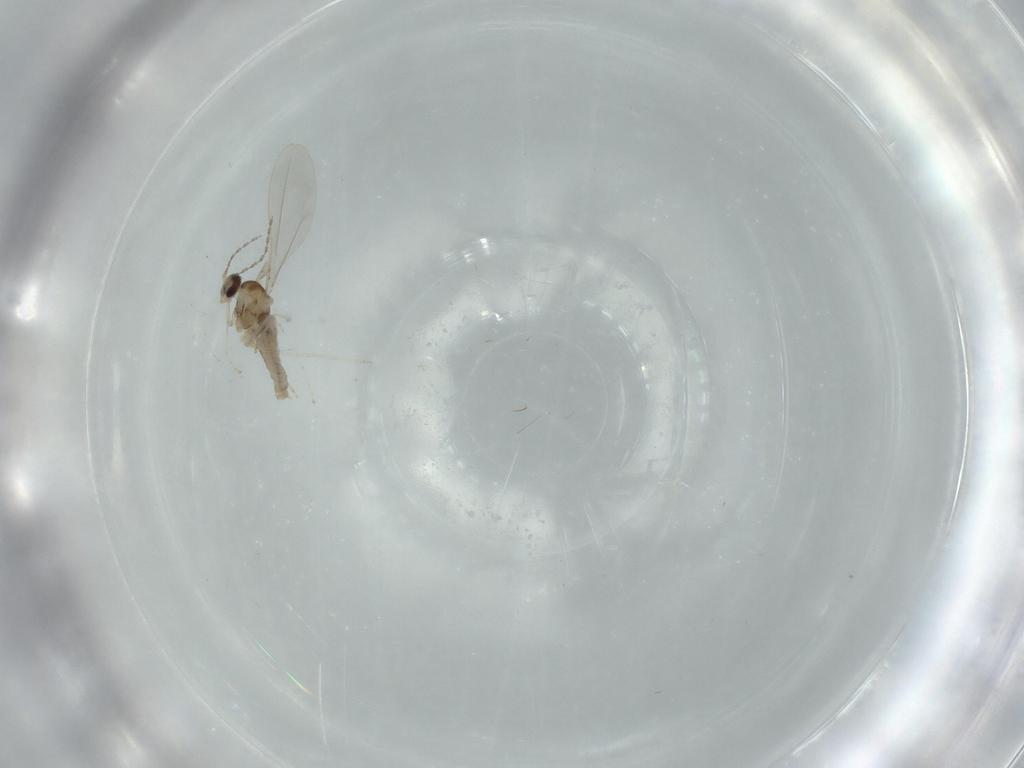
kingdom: Animalia
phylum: Arthropoda
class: Insecta
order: Diptera
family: Cecidomyiidae
